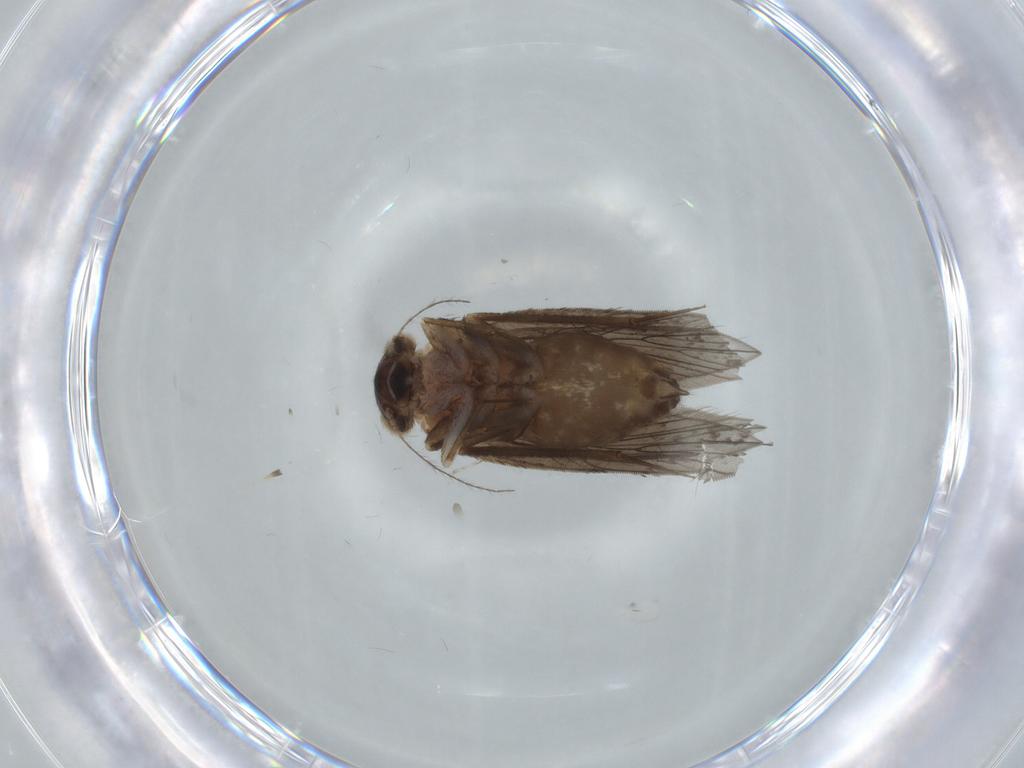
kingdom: Animalia
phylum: Arthropoda
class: Insecta
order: Psocodea
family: Lepidopsocidae
